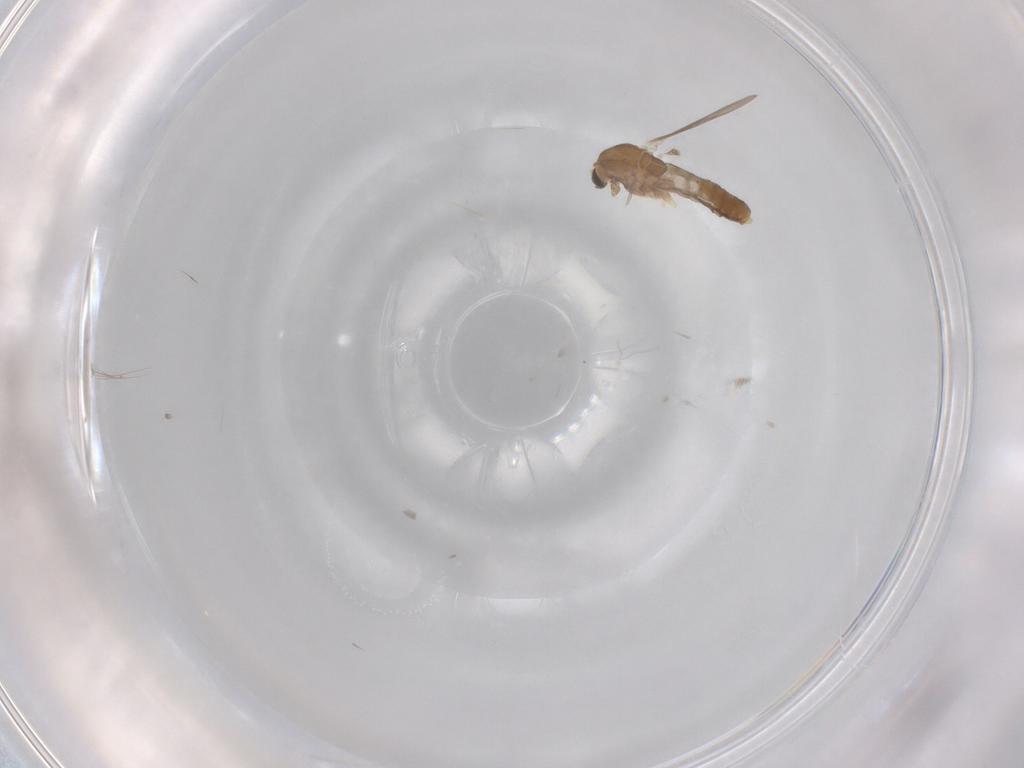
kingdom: Animalia
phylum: Arthropoda
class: Insecta
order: Diptera
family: Chironomidae
